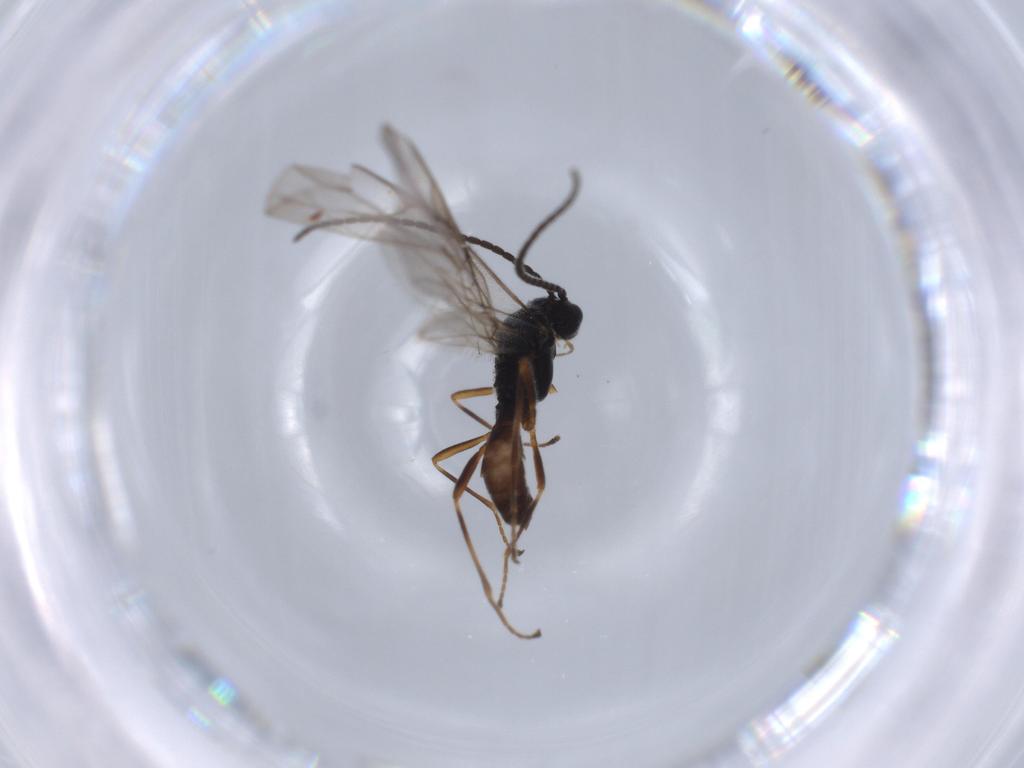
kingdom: Animalia
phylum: Arthropoda
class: Insecta
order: Hymenoptera
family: Braconidae
